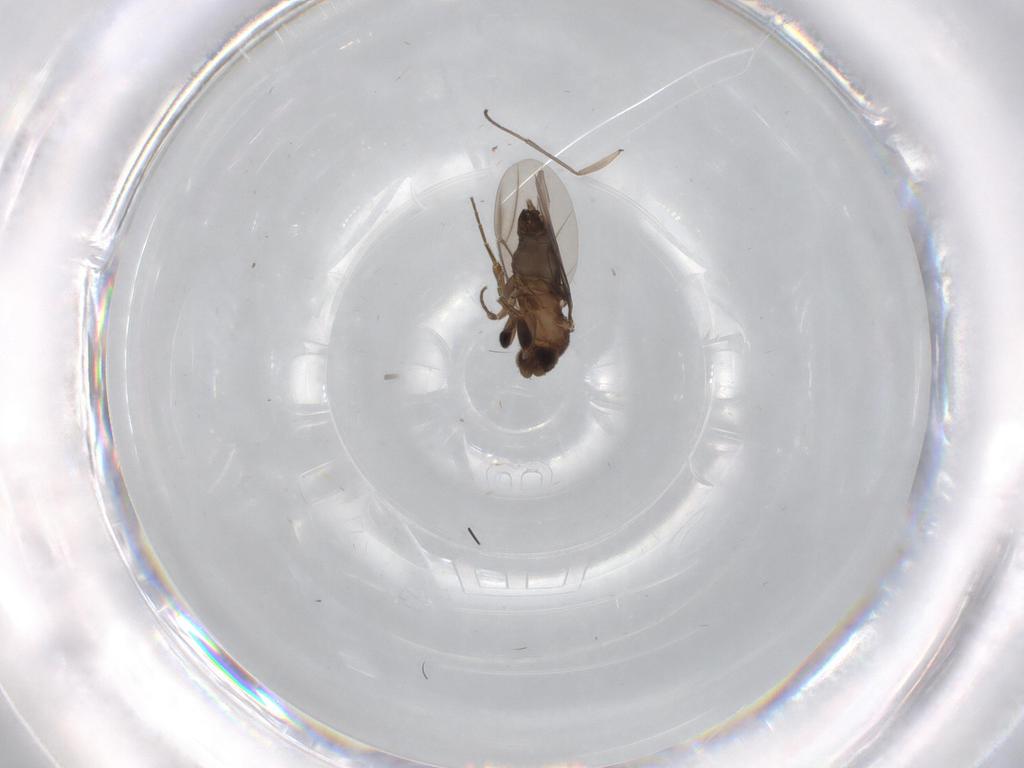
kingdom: Animalia
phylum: Arthropoda
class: Insecta
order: Diptera
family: Phoridae
